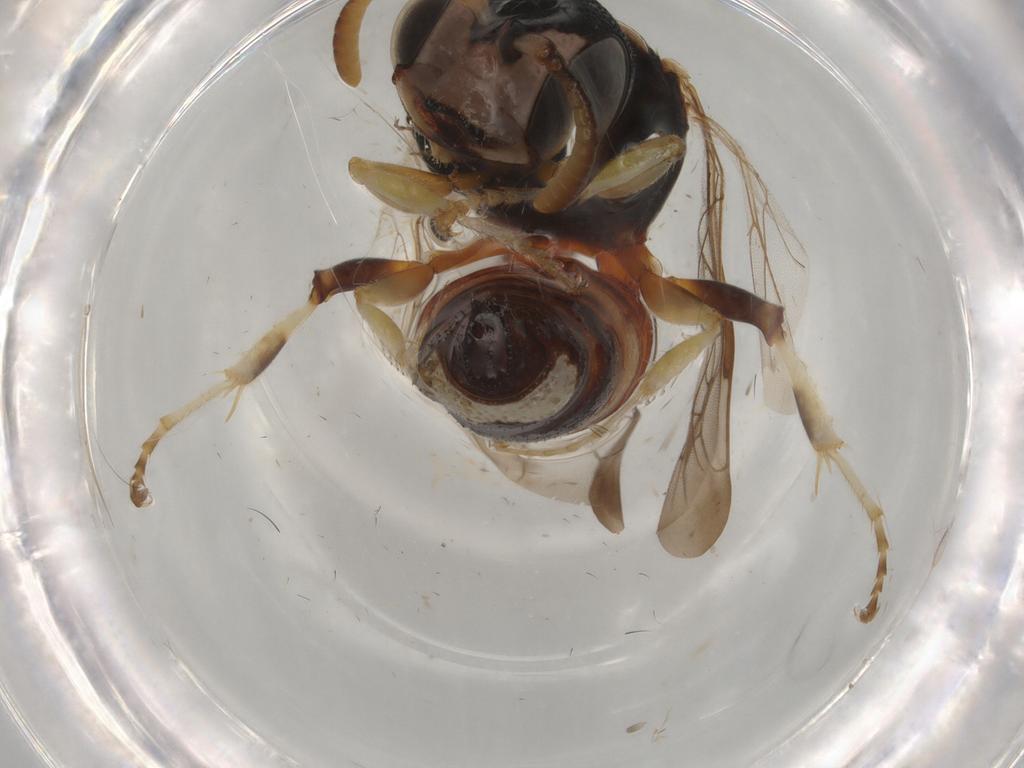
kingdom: Animalia
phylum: Arthropoda
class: Insecta
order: Hymenoptera
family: Crabronidae
